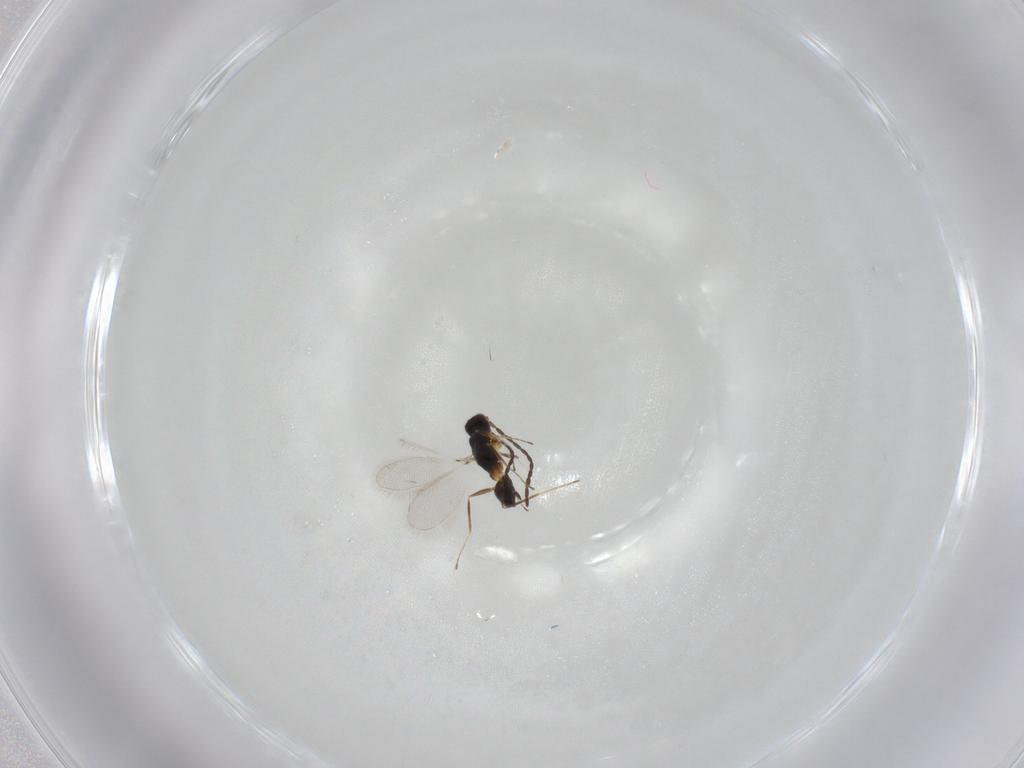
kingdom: Animalia
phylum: Arthropoda
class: Insecta
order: Hymenoptera
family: Mymaridae
